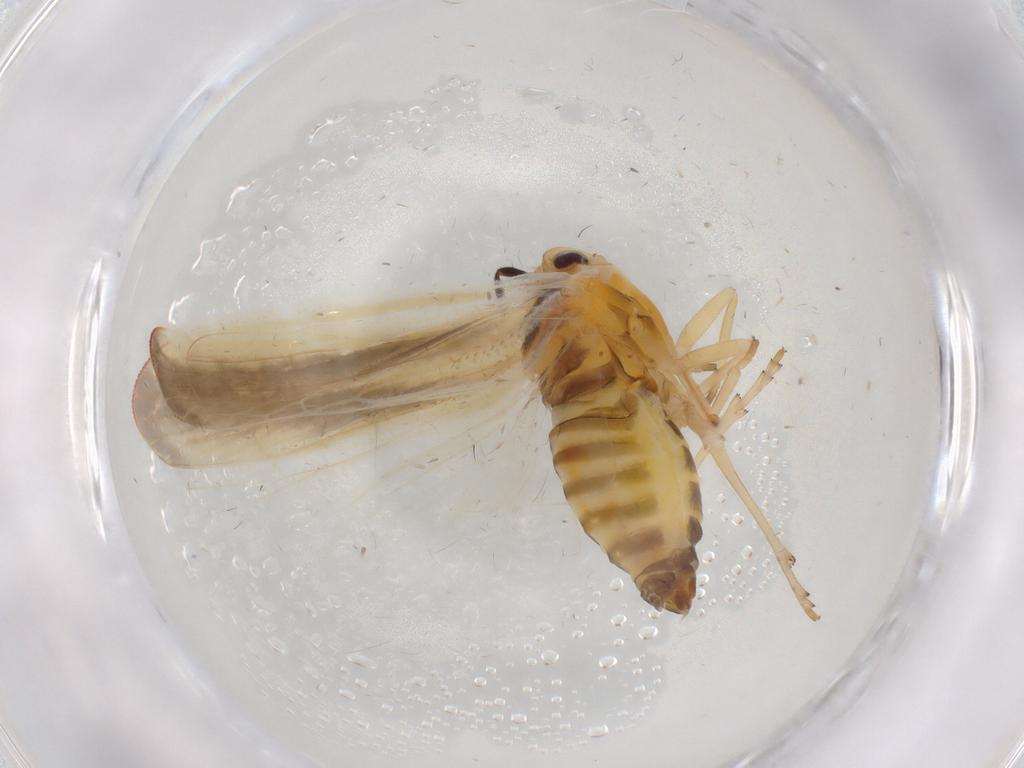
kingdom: Animalia
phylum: Arthropoda
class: Insecta
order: Hemiptera
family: Derbidae
